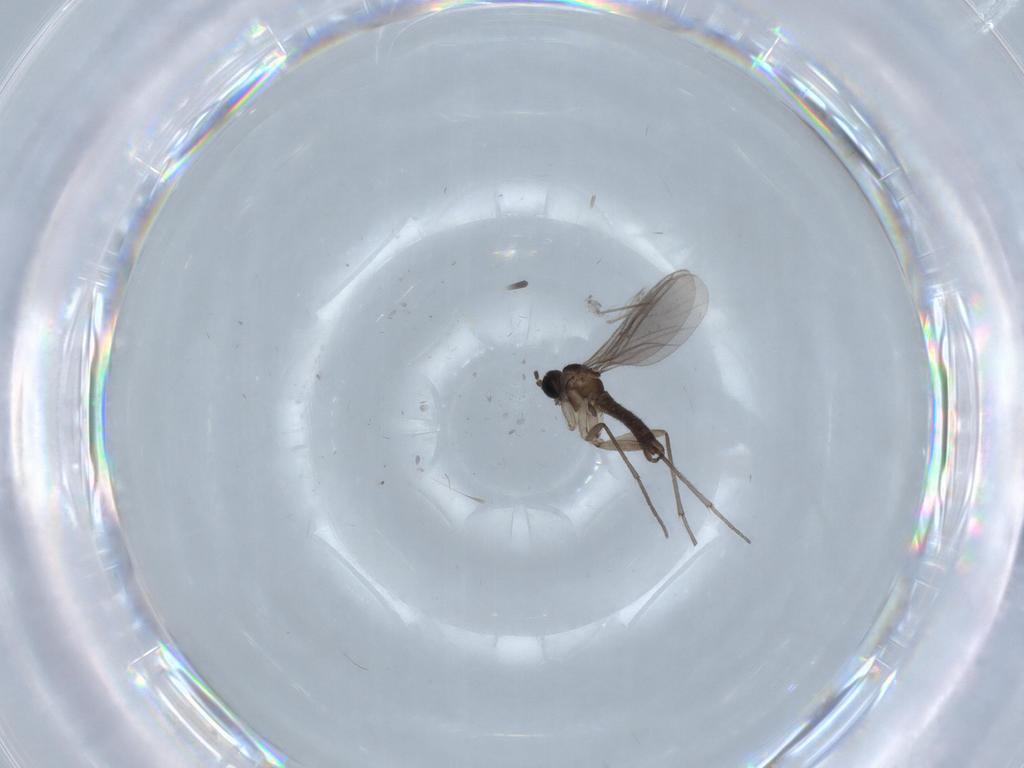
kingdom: Animalia
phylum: Arthropoda
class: Insecta
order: Diptera
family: Sciaridae
